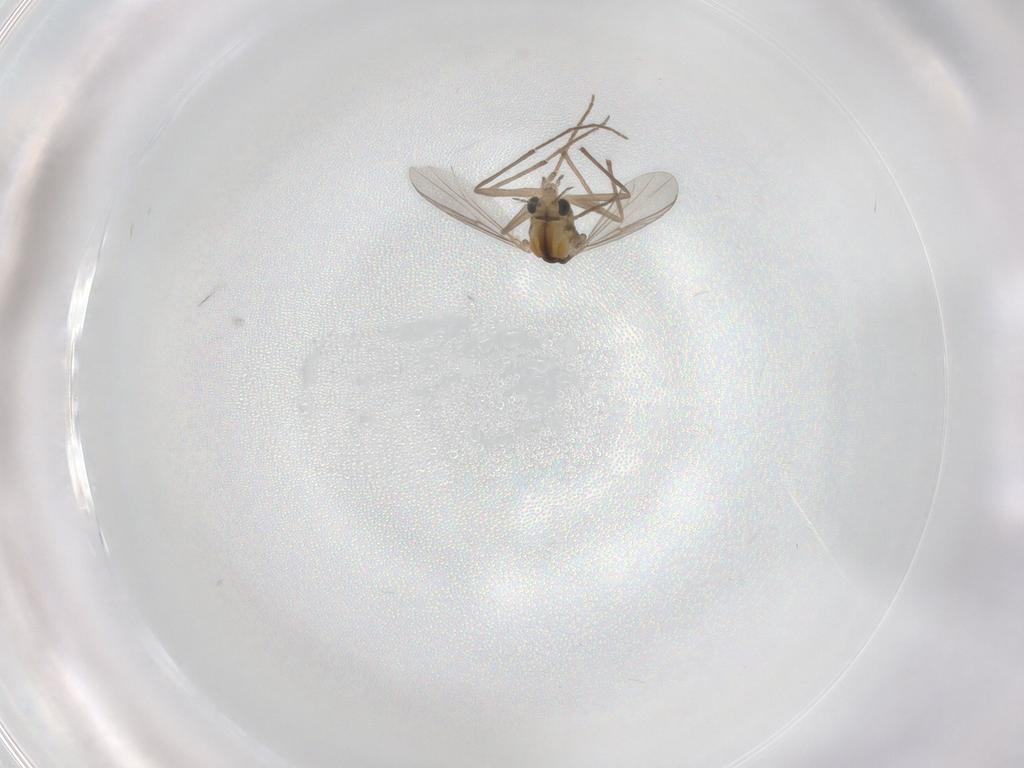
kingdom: Animalia
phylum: Arthropoda
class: Insecta
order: Diptera
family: Chironomidae
